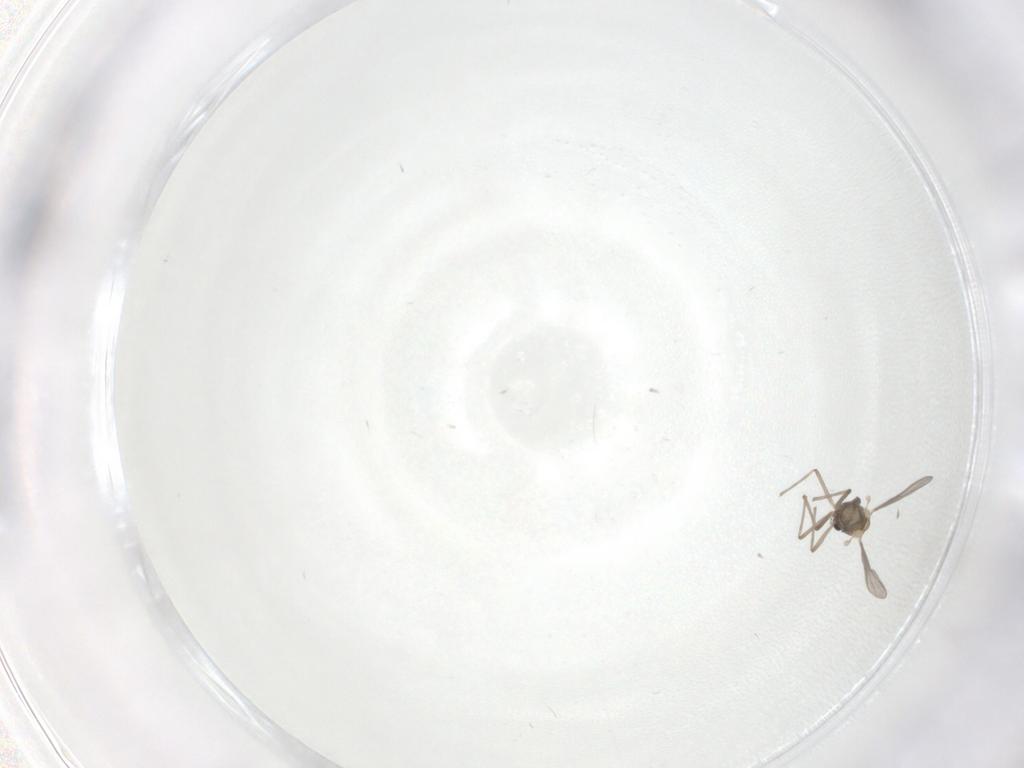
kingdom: Animalia
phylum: Arthropoda
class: Insecta
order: Diptera
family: Chironomidae
